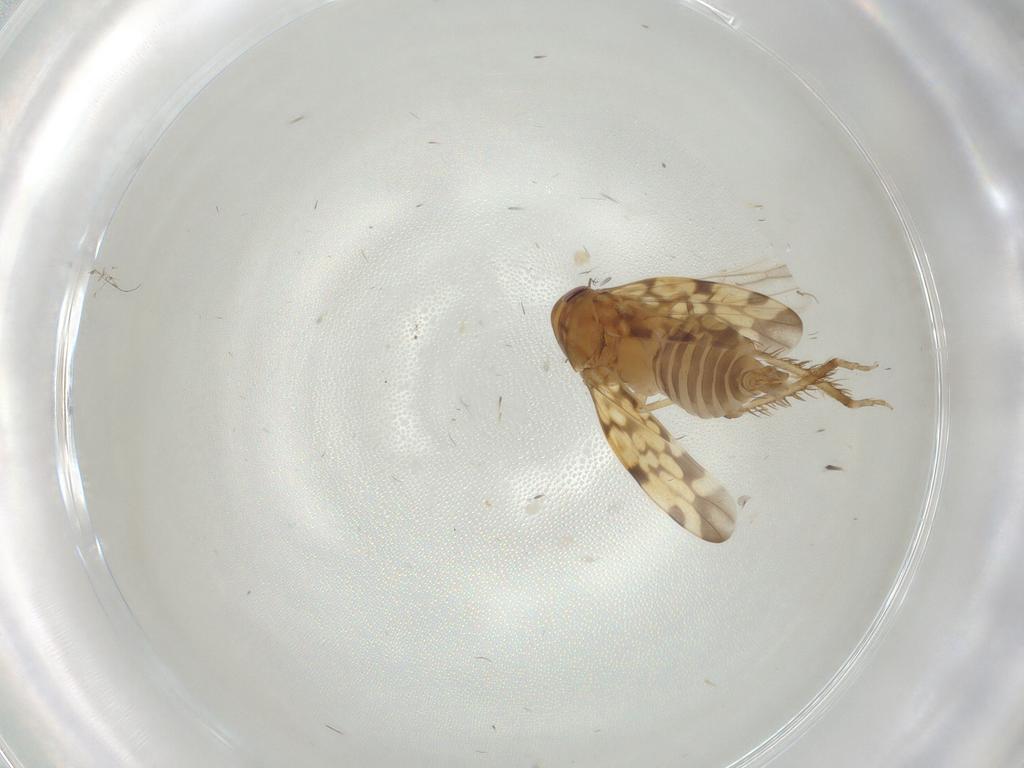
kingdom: Animalia
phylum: Arthropoda
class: Insecta
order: Hemiptera
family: Cicadellidae
